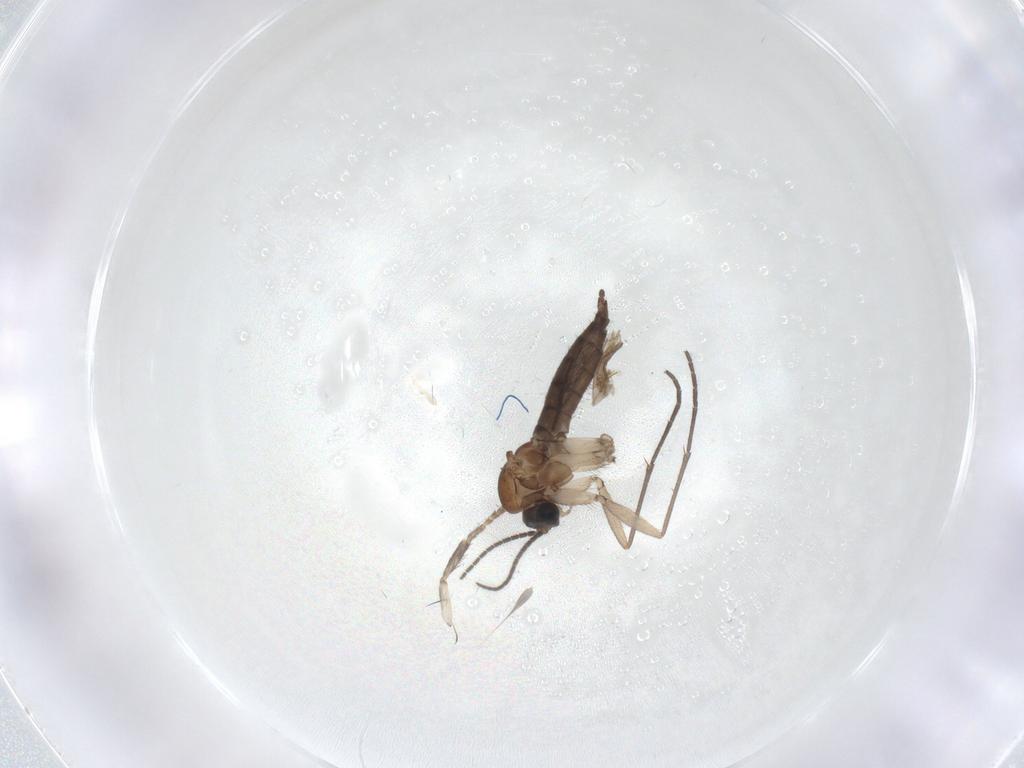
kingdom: Animalia
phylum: Arthropoda
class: Insecta
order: Diptera
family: Sciaridae
